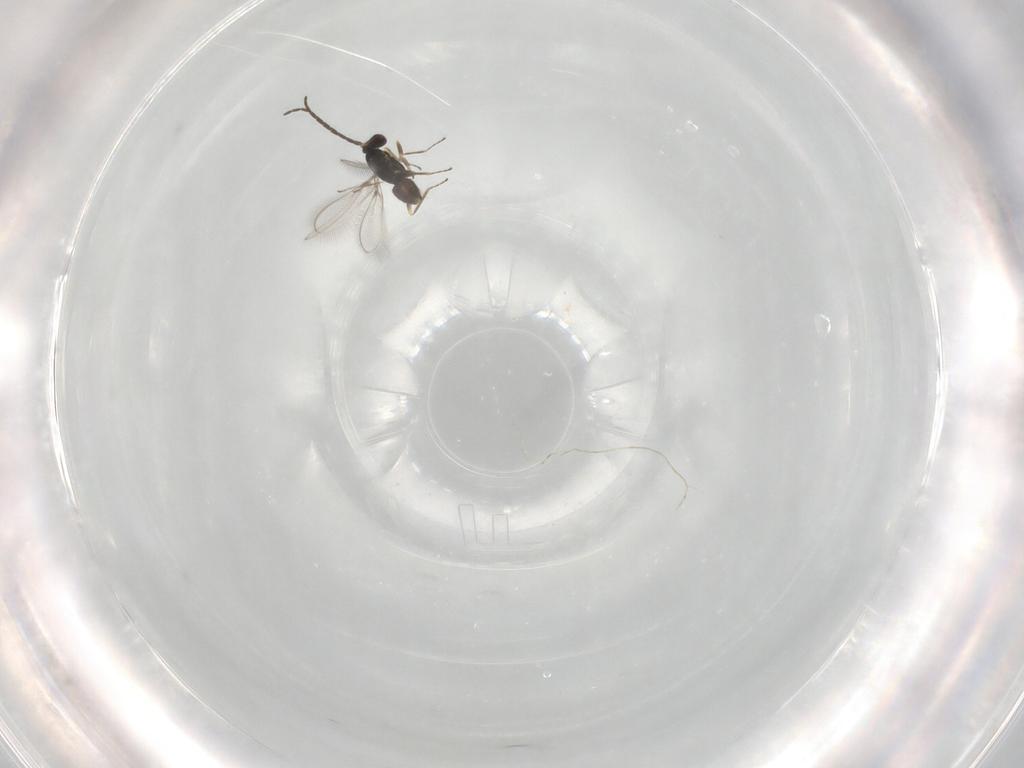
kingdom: Animalia
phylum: Arthropoda
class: Insecta
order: Hymenoptera
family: Mymaridae
